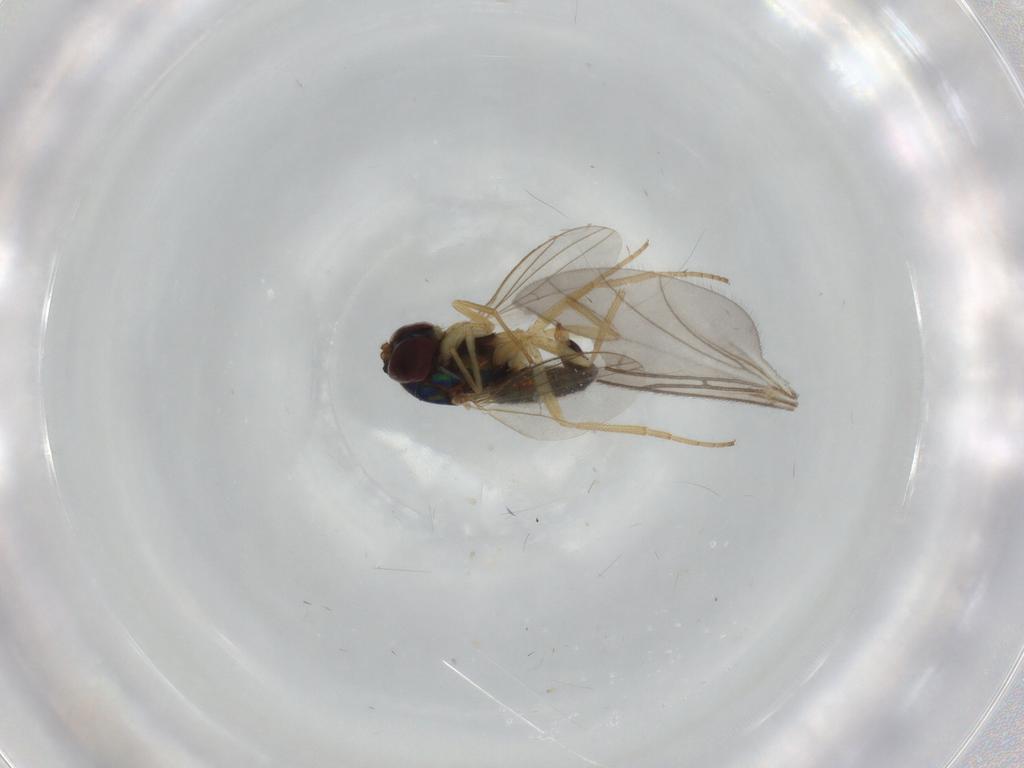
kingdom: Animalia
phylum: Arthropoda
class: Insecta
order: Diptera
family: Dolichopodidae
